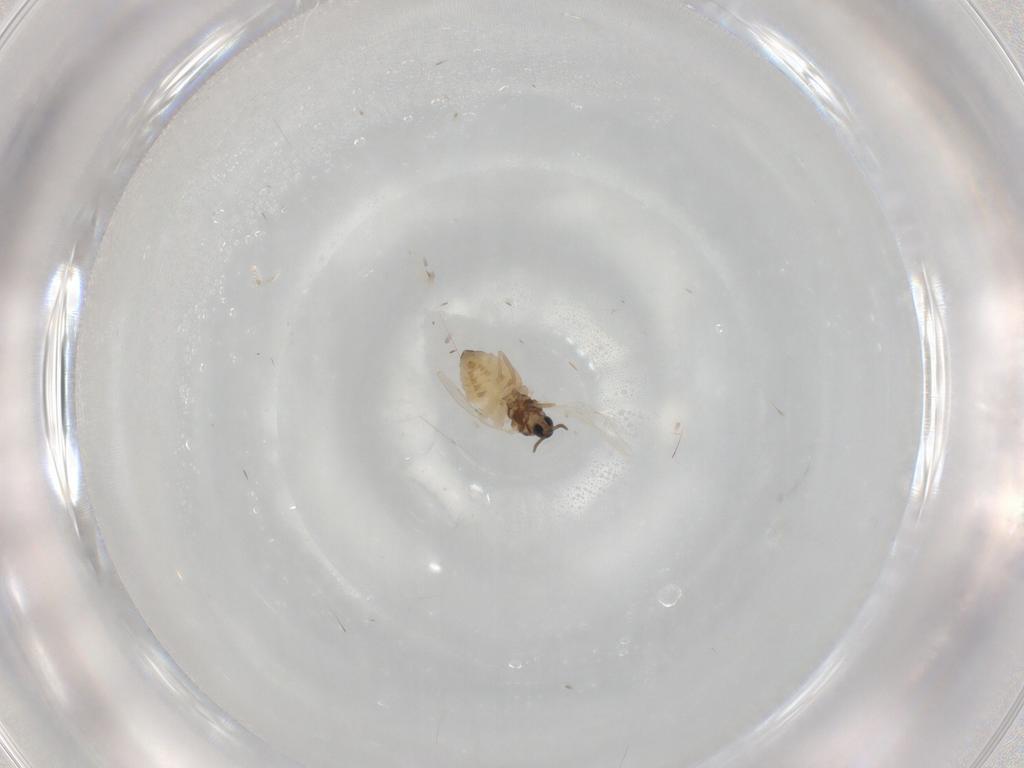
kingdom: Animalia
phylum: Arthropoda
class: Insecta
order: Diptera
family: Cecidomyiidae
